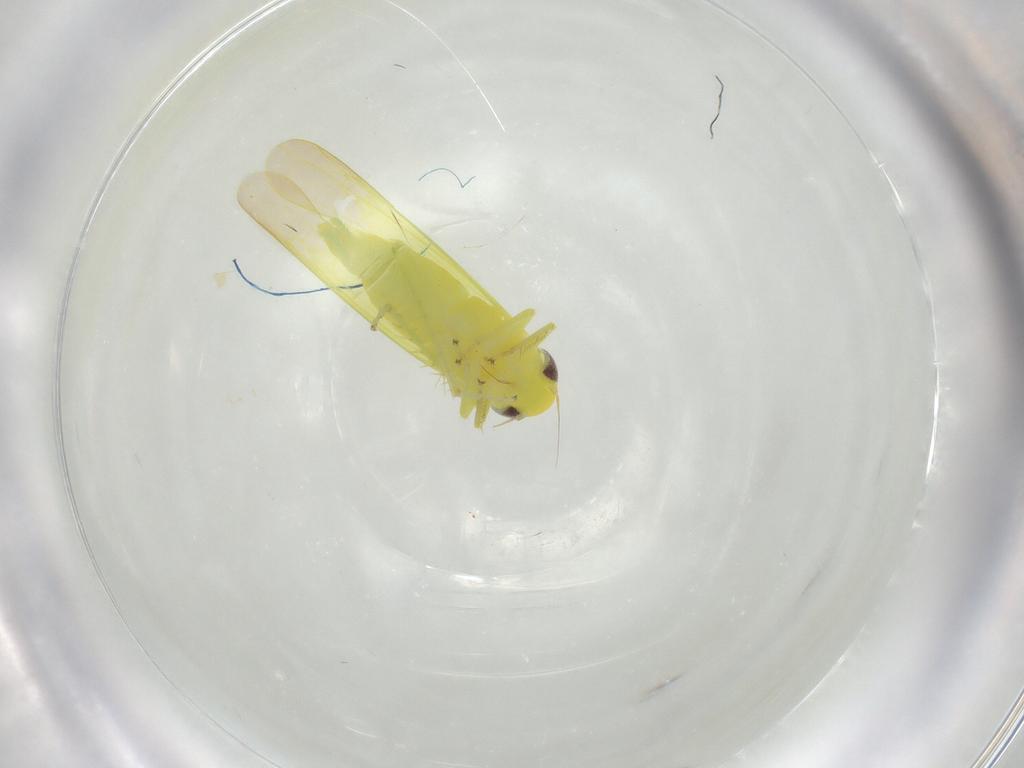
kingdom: Animalia
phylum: Arthropoda
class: Insecta
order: Hemiptera
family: Cicadellidae
